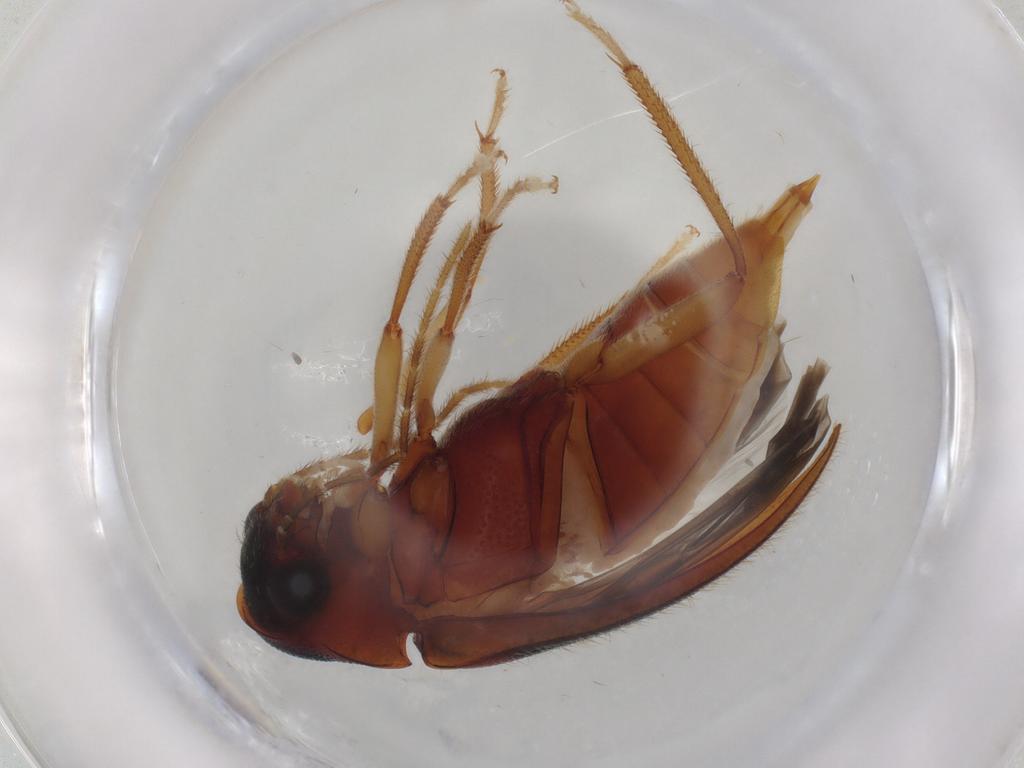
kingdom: Animalia
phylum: Arthropoda
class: Insecta
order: Coleoptera
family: Ptilodactylidae
